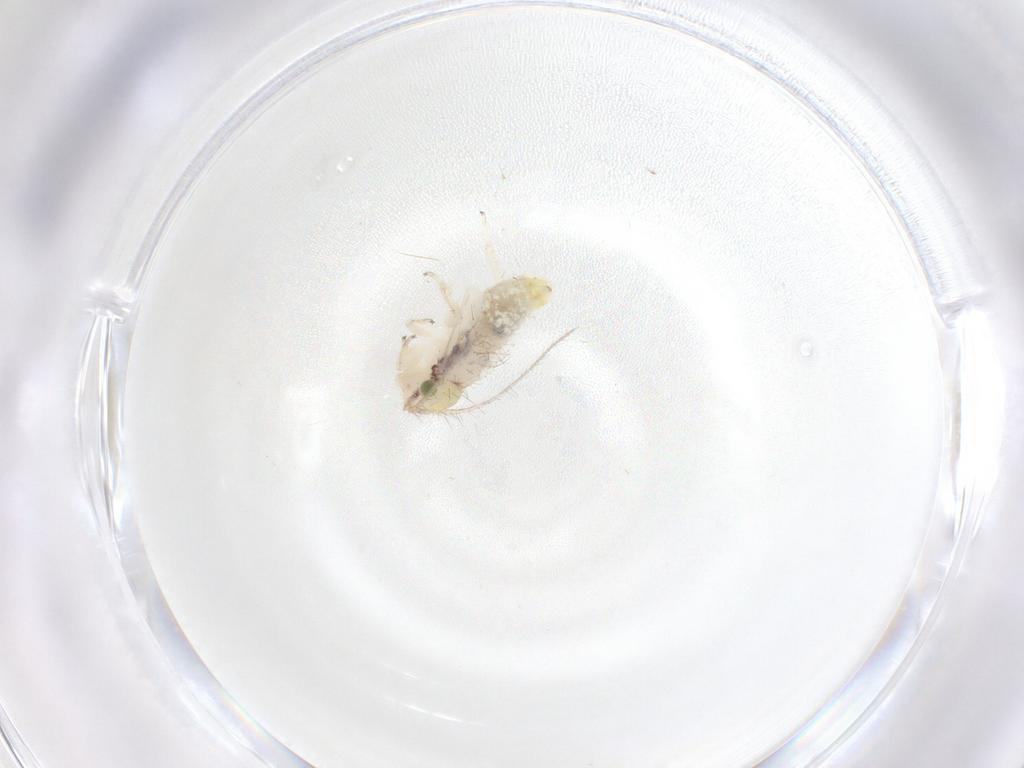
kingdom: Animalia
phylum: Arthropoda
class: Insecta
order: Psocodea
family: Pseudocaeciliidae
